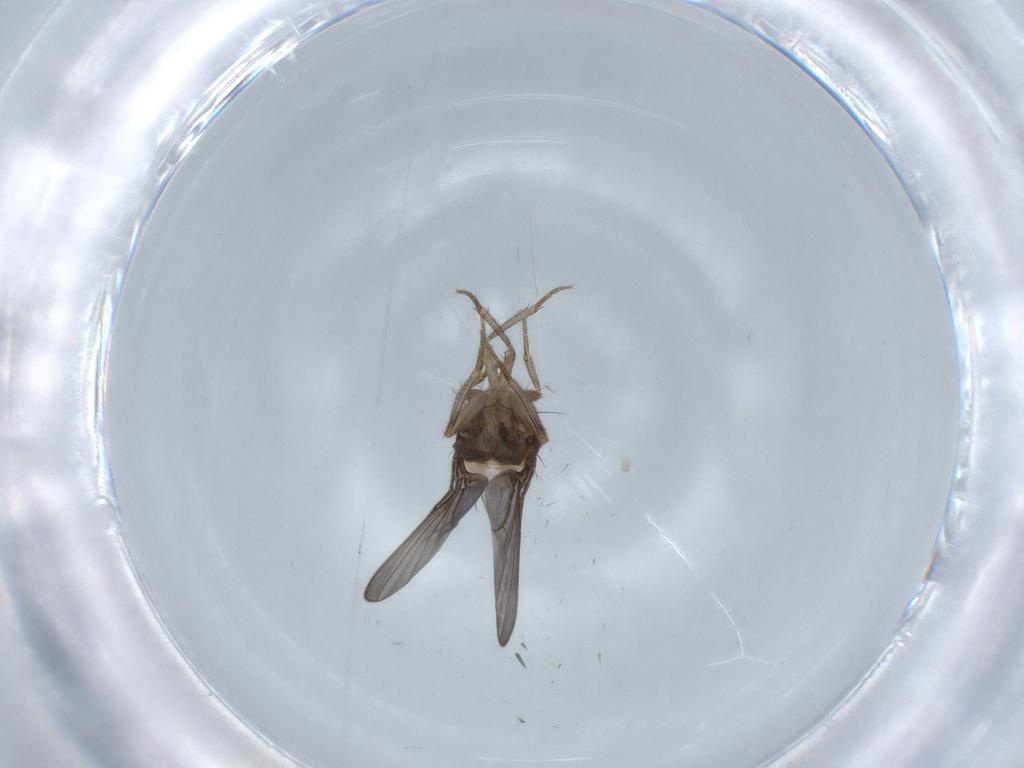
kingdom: Animalia
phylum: Arthropoda
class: Insecta
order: Diptera
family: Drosophilidae
